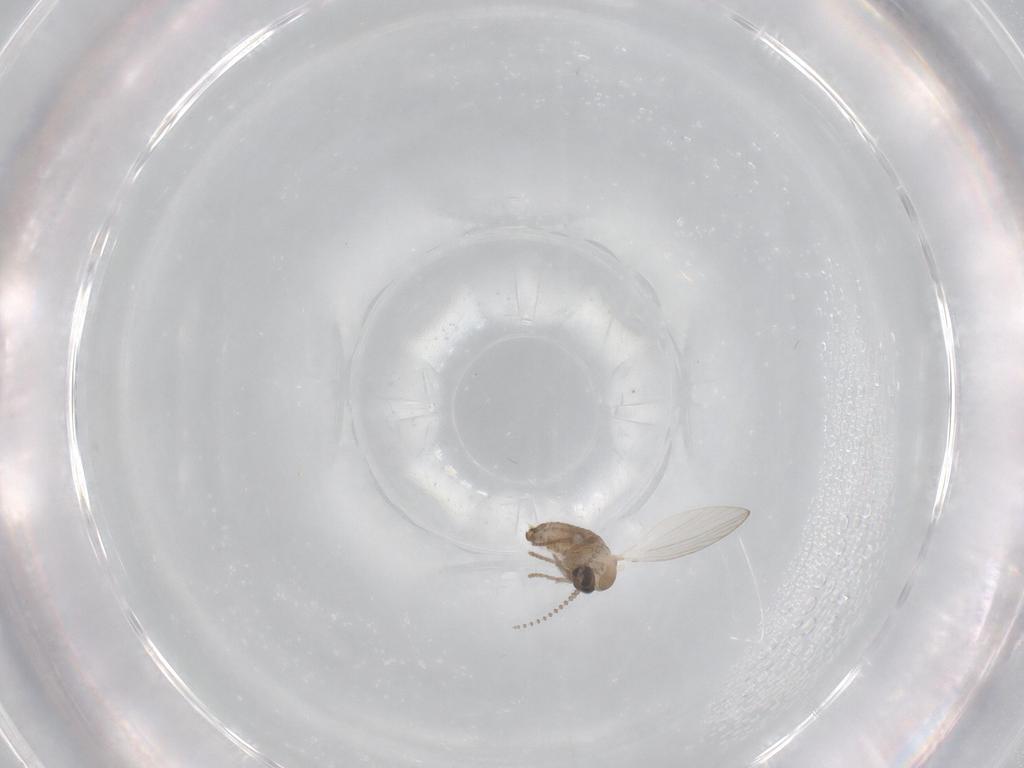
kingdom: Animalia
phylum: Arthropoda
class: Insecta
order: Diptera
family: Psychodidae
